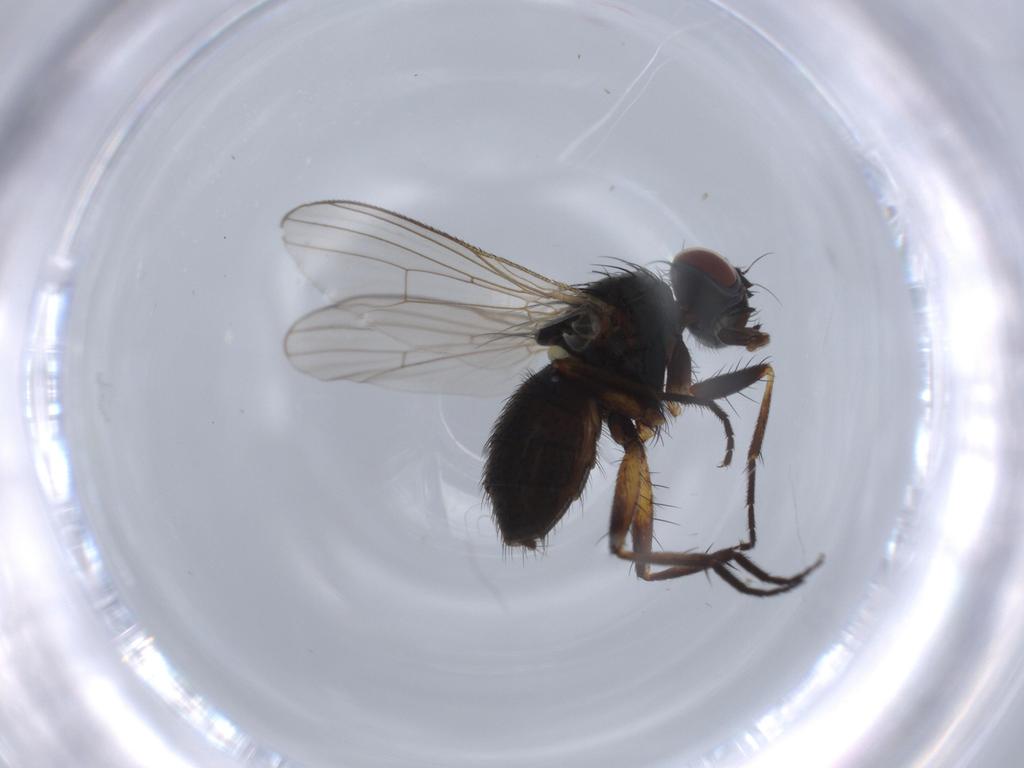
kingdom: Animalia
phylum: Arthropoda
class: Insecta
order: Diptera
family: Muscidae
